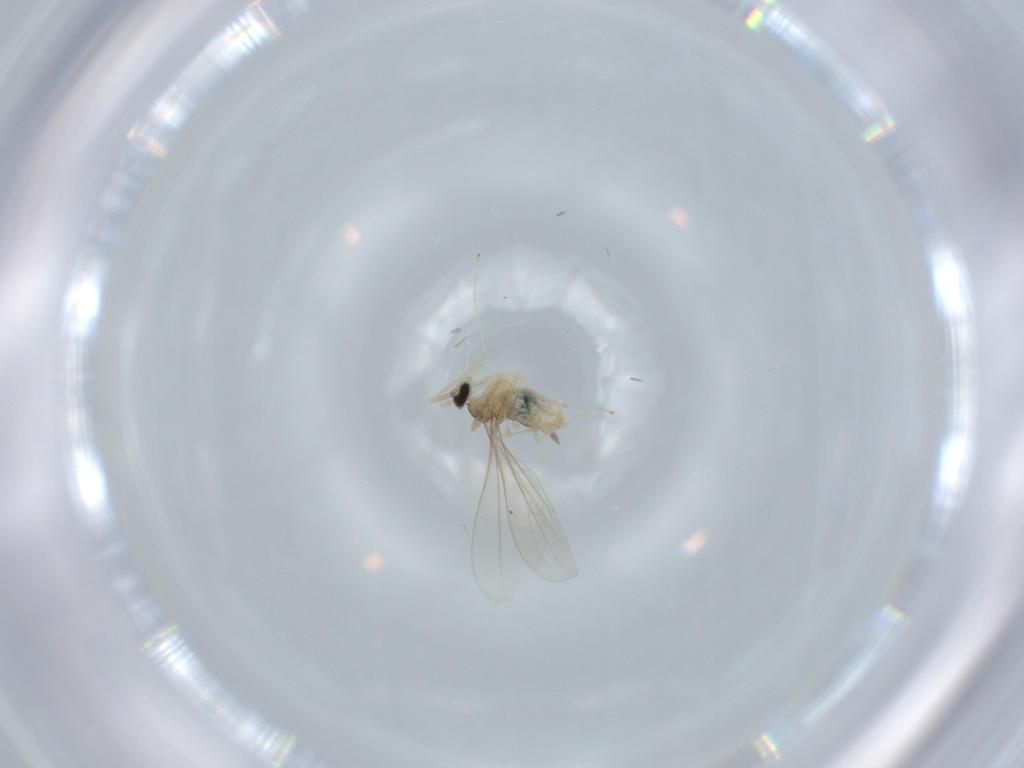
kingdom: Animalia
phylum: Arthropoda
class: Insecta
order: Diptera
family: Cecidomyiidae
